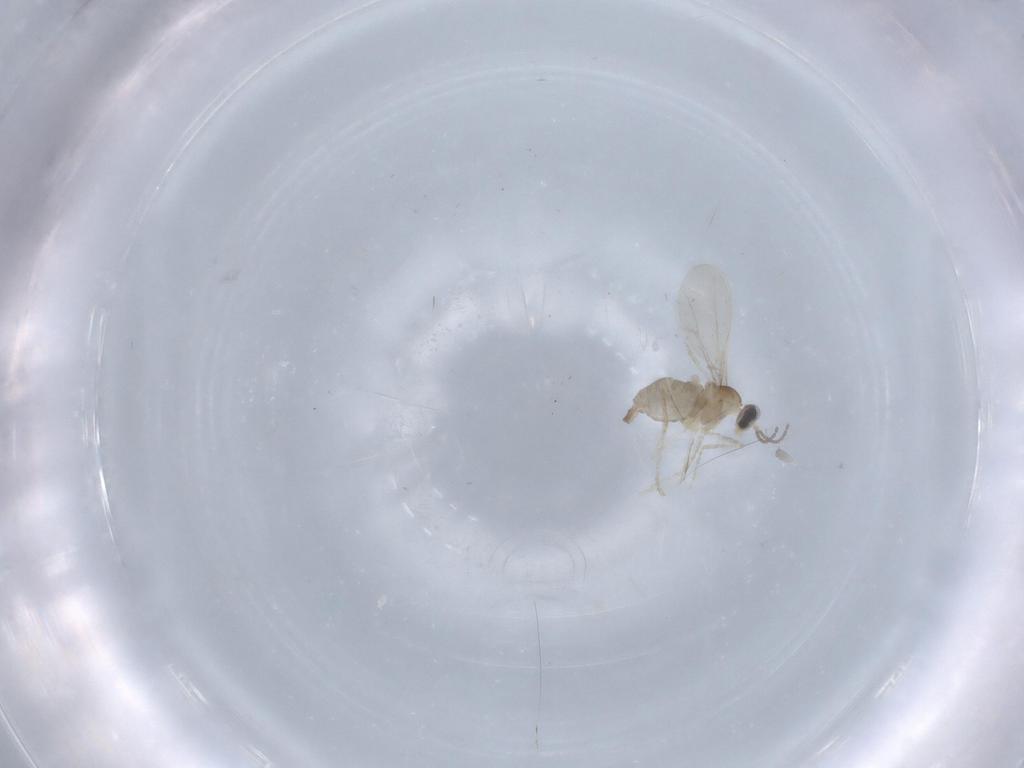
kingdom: Animalia
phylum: Arthropoda
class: Insecta
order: Diptera
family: Cecidomyiidae
